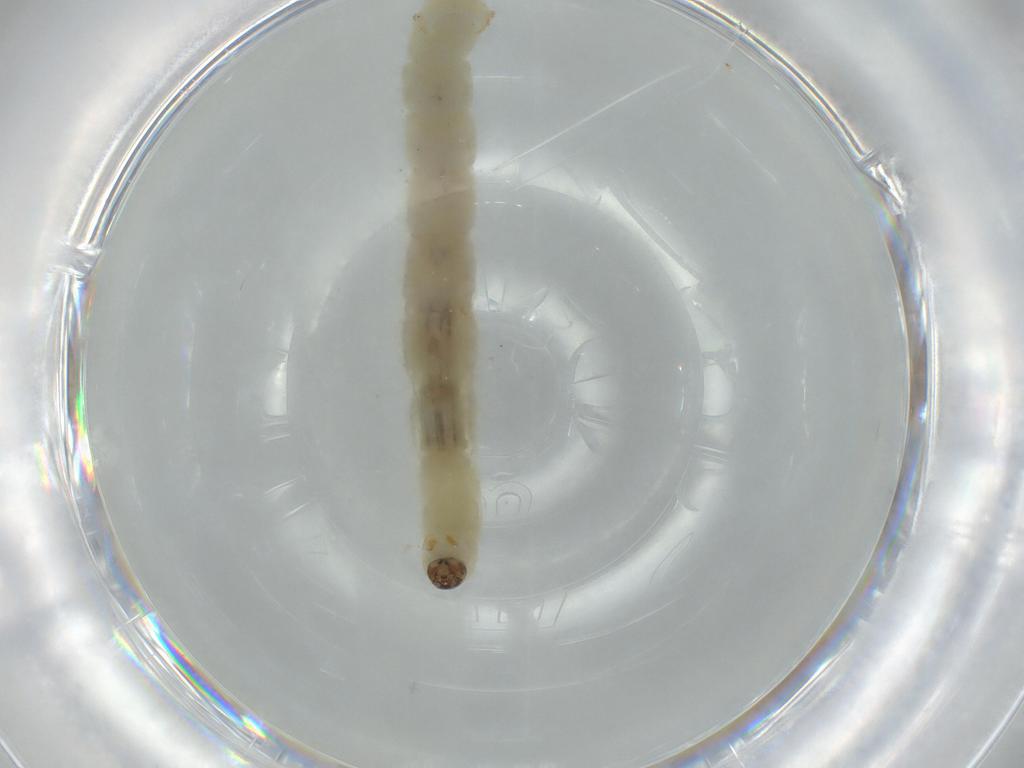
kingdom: Animalia
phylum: Arthropoda
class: Insecta
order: Diptera
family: Chironomidae
